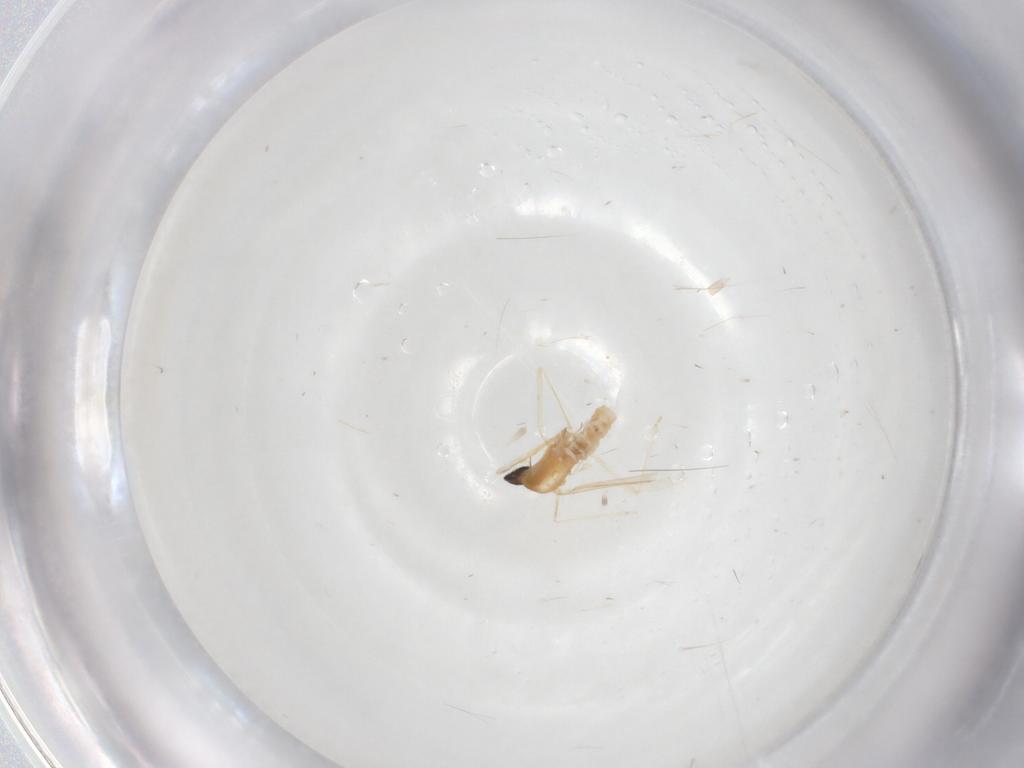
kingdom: Animalia
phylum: Arthropoda
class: Insecta
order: Diptera
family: Cecidomyiidae
